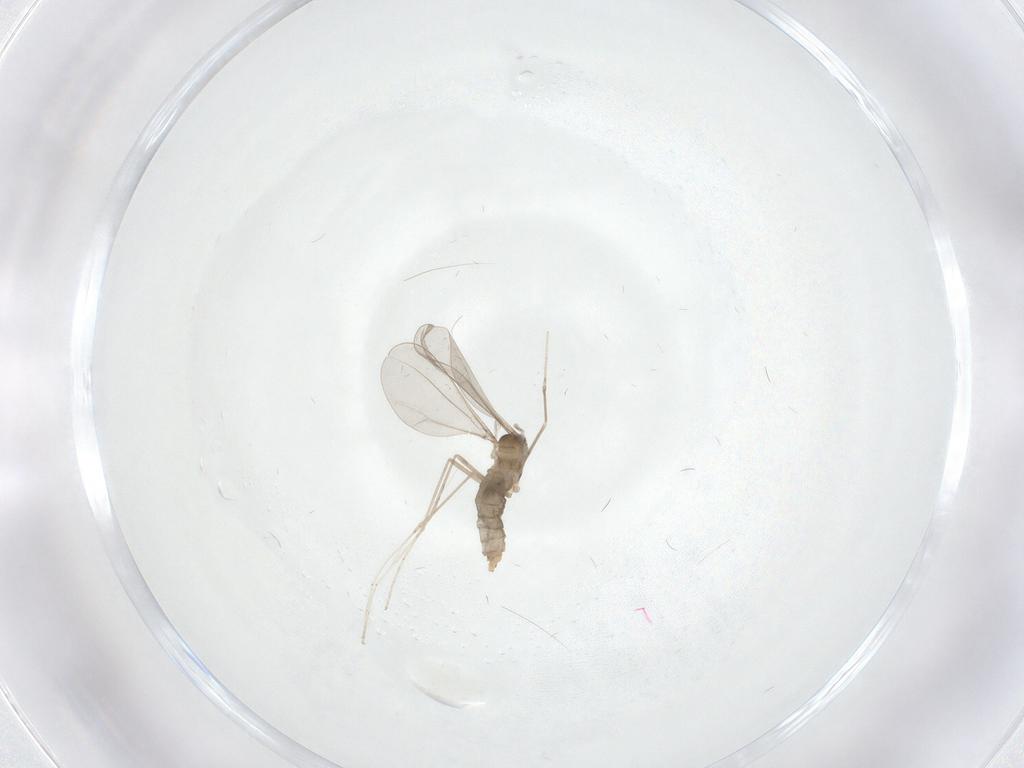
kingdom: Animalia
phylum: Arthropoda
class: Insecta
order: Diptera
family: Cecidomyiidae
